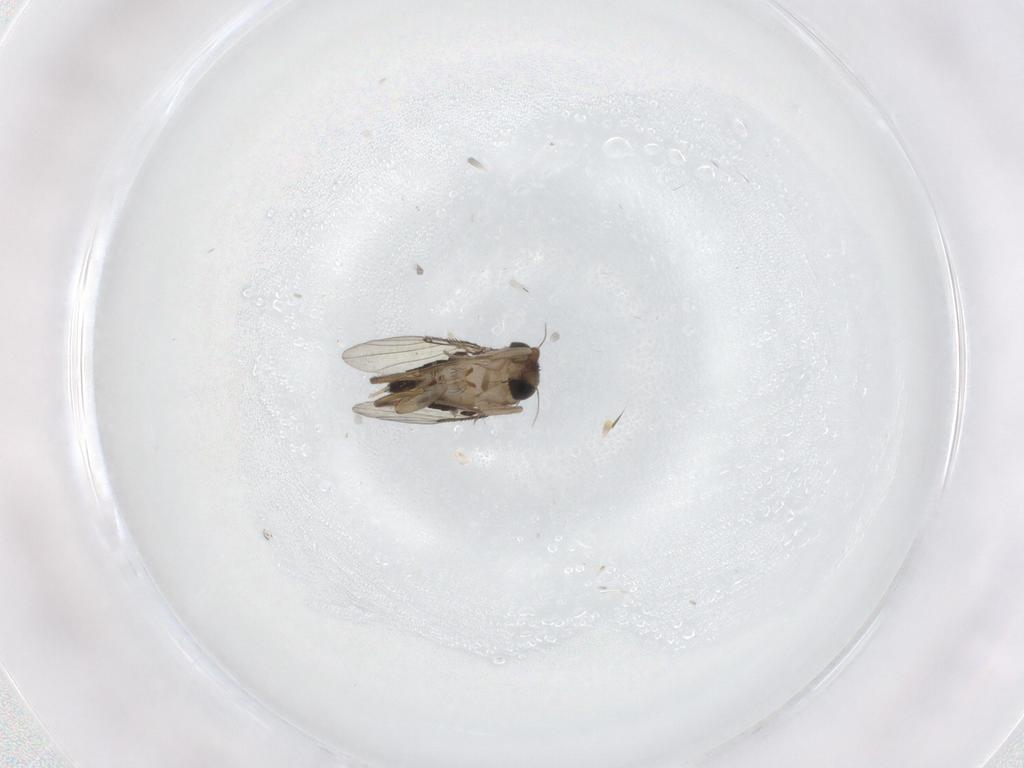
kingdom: Animalia
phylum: Arthropoda
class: Insecta
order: Diptera
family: Phoridae
